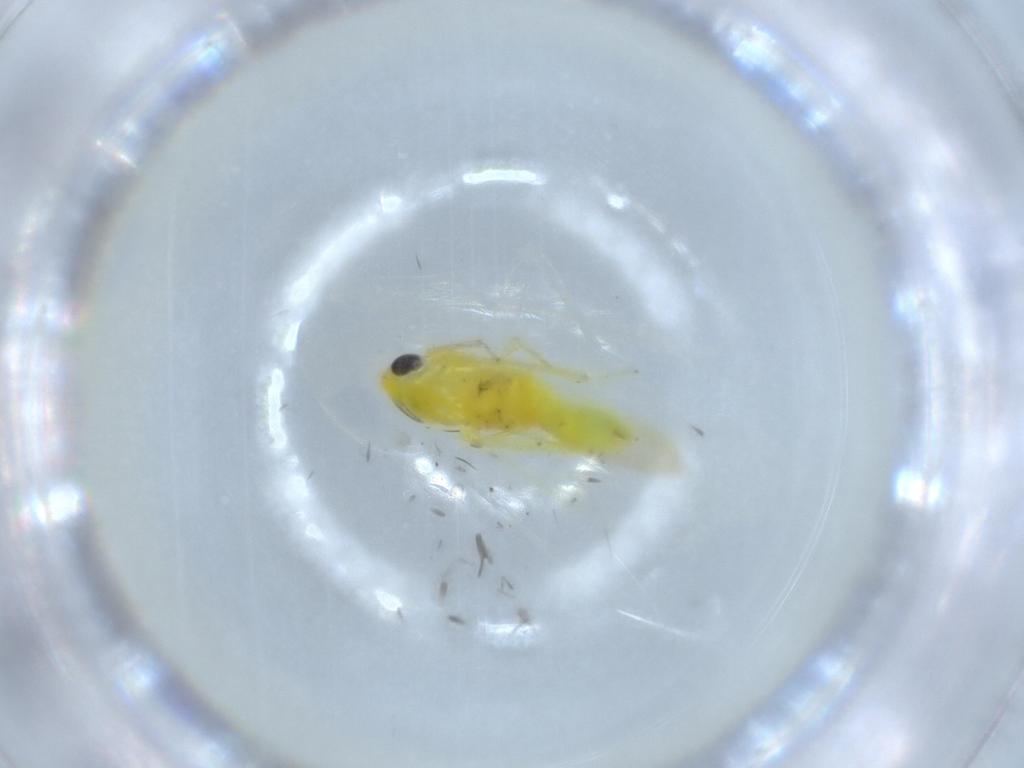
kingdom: Animalia
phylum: Arthropoda
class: Insecta
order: Hemiptera
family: Cicadellidae
